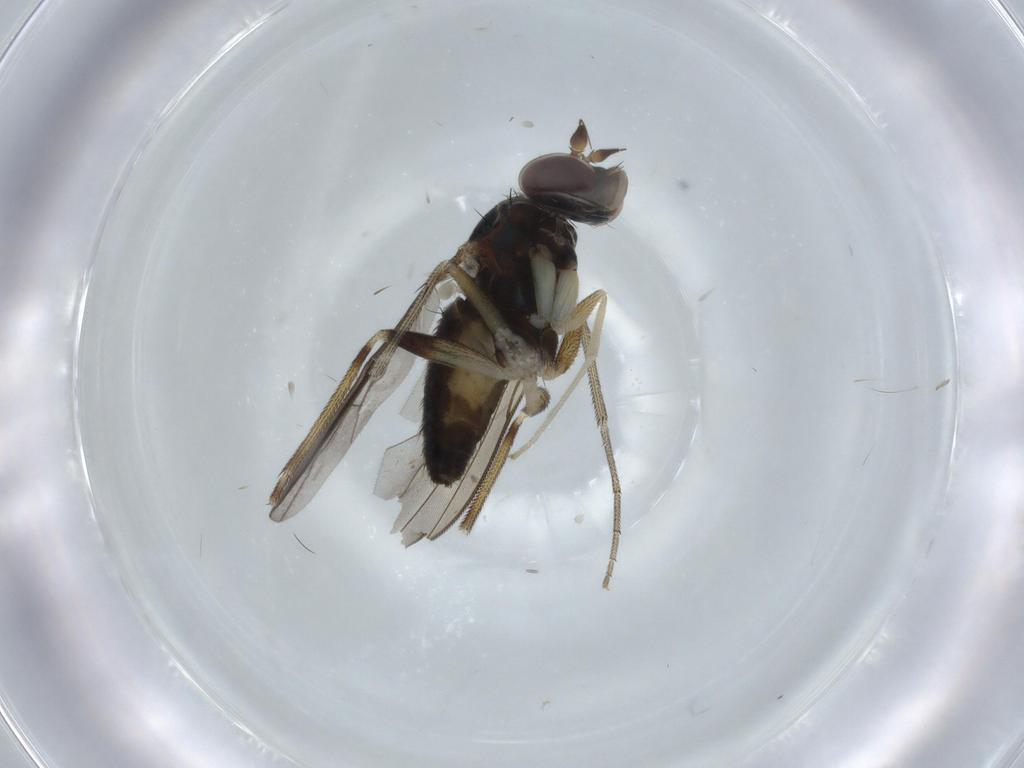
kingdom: Animalia
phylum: Arthropoda
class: Insecta
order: Diptera
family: Dolichopodidae
